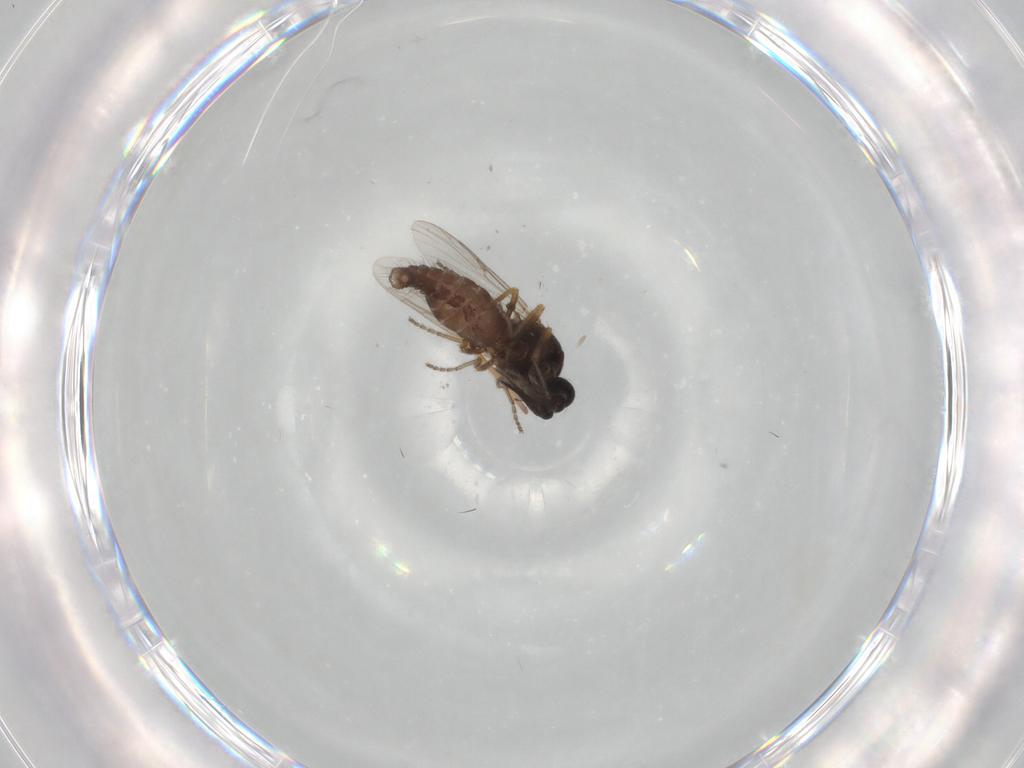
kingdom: Animalia
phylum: Arthropoda
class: Insecta
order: Diptera
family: Ceratopogonidae
